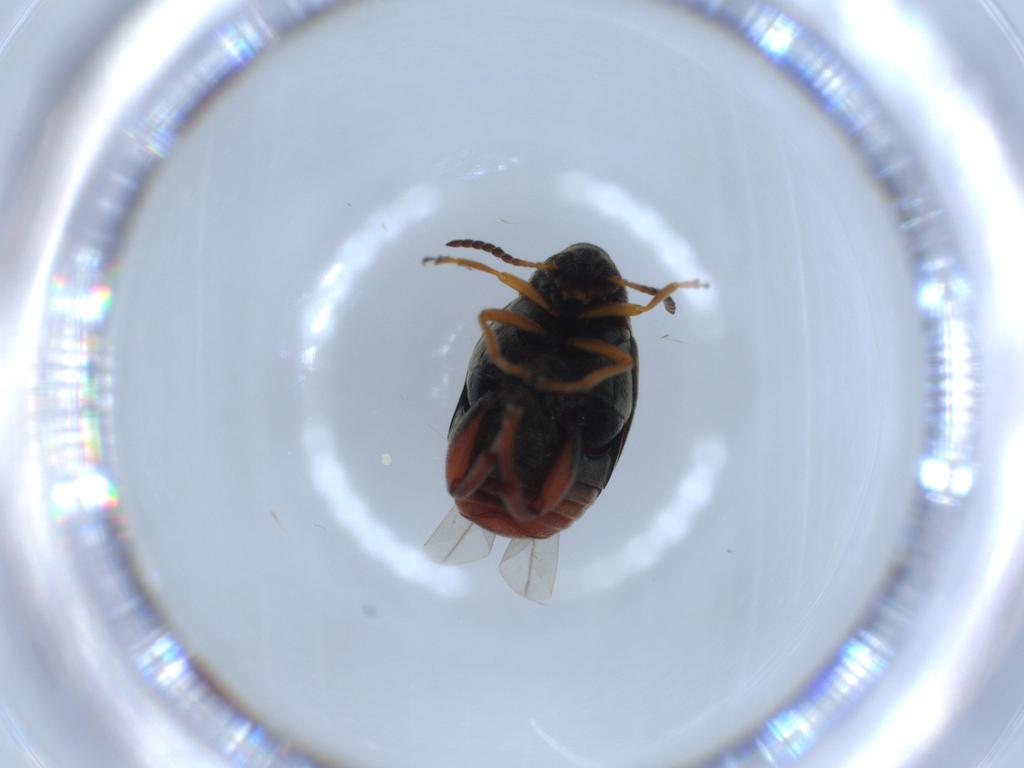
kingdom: Animalia
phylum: Arthropoda
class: Insecta
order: Coleoptera
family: Chrysomelidae
